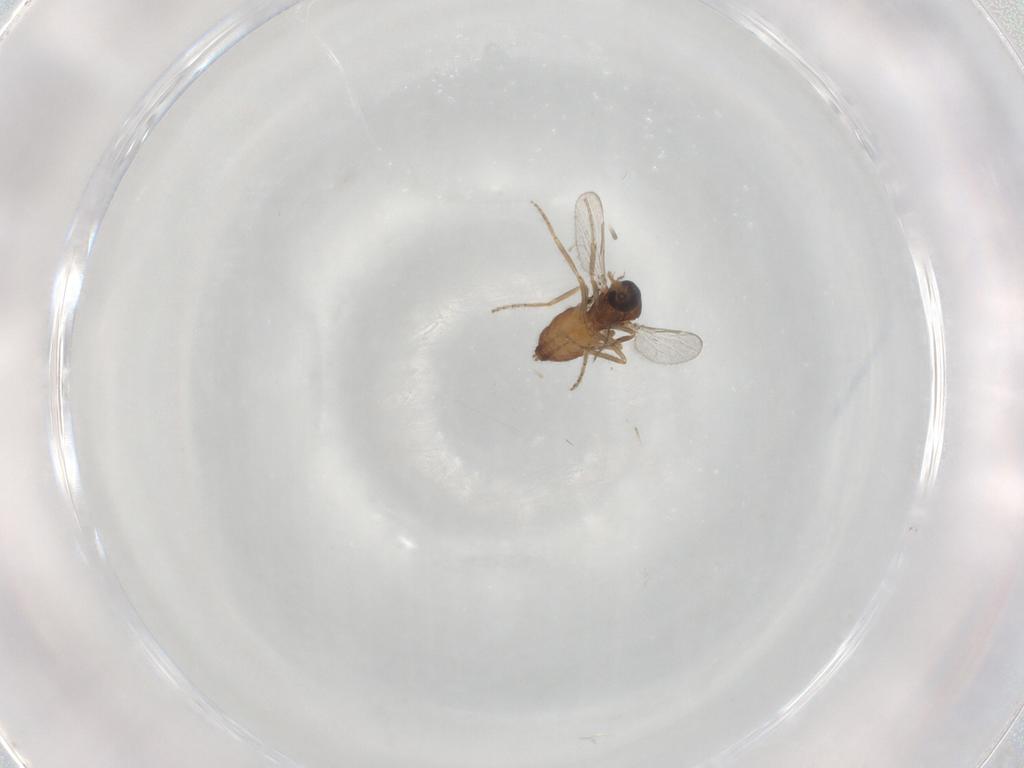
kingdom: Animalia
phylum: Arthropoda
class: Insecta
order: Diptera
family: Ceratopogonidae
